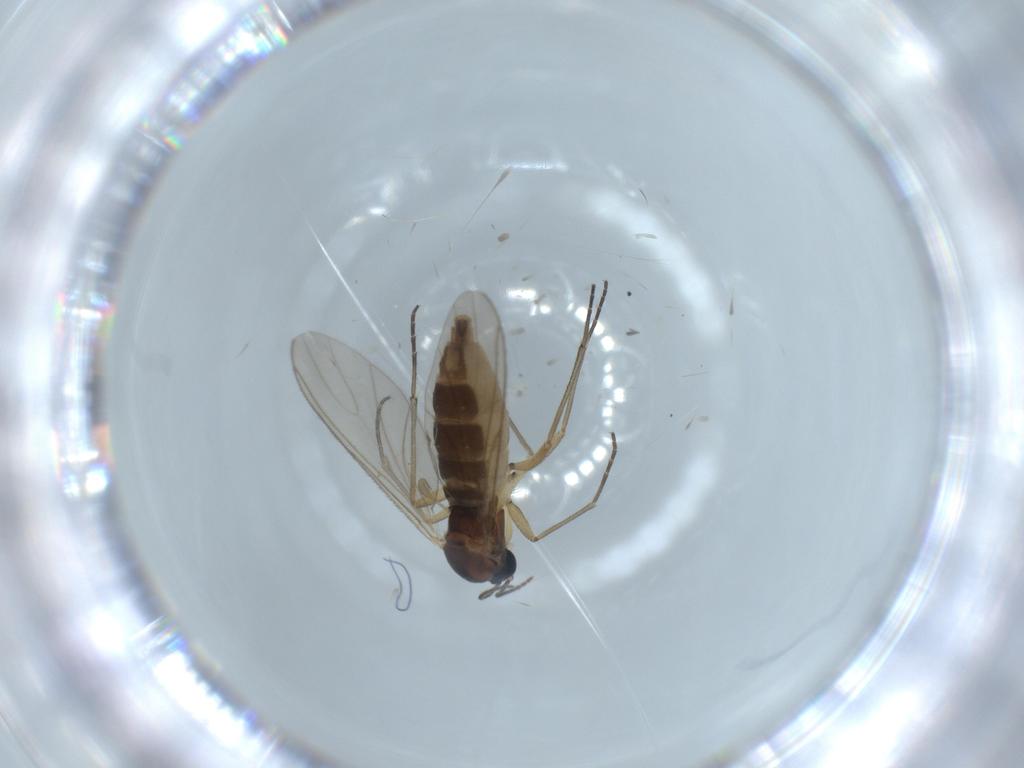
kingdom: Animalia
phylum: Arthropoda
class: Insecta
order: Diptera
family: Sciaridae
